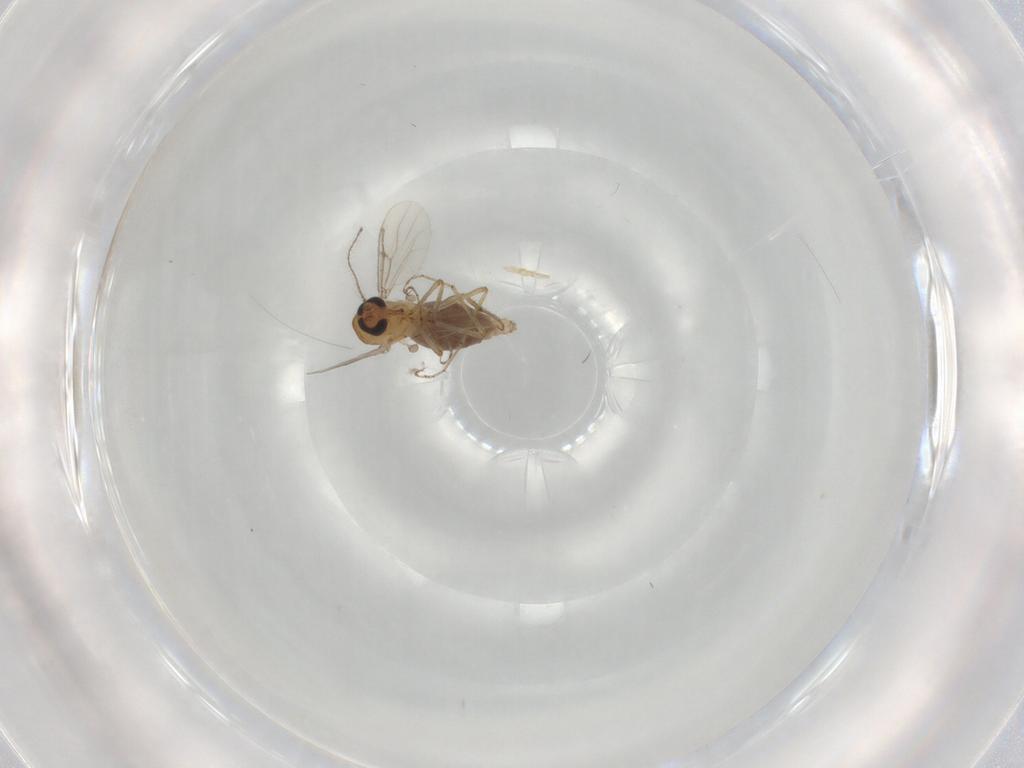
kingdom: Animalia
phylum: Arthropoda
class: Insecta
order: Diptera
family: Ceratopogonidae
